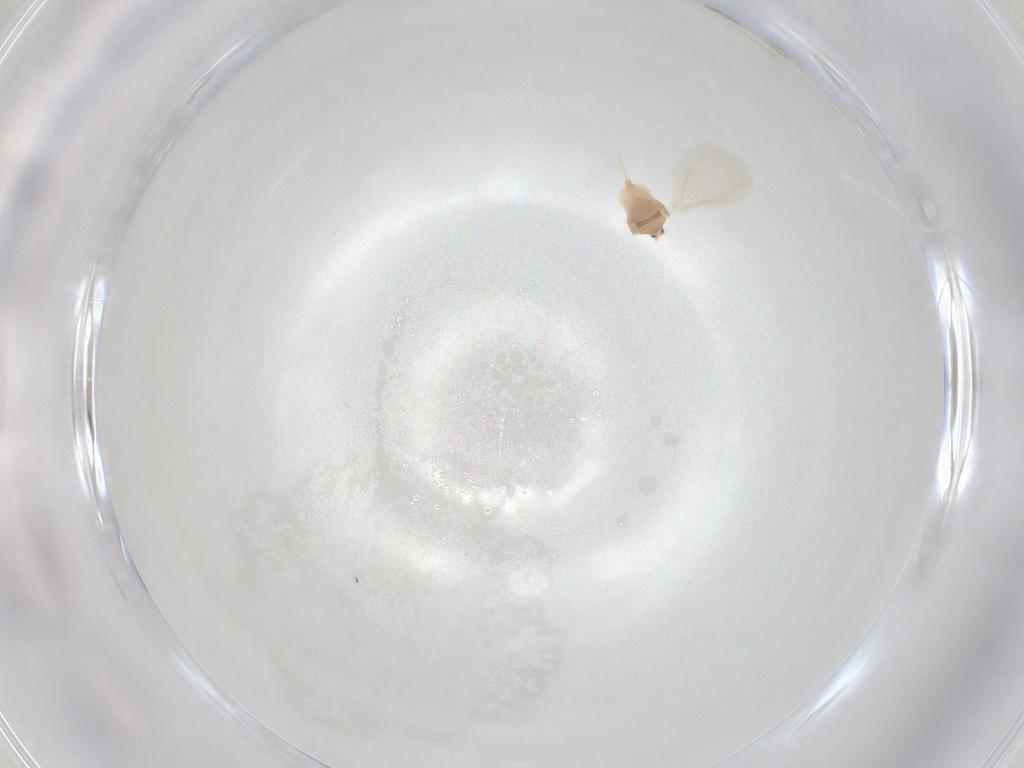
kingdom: Animalia
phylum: Arthropoda
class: Insecta
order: Hemiptera
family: Diaspididae
